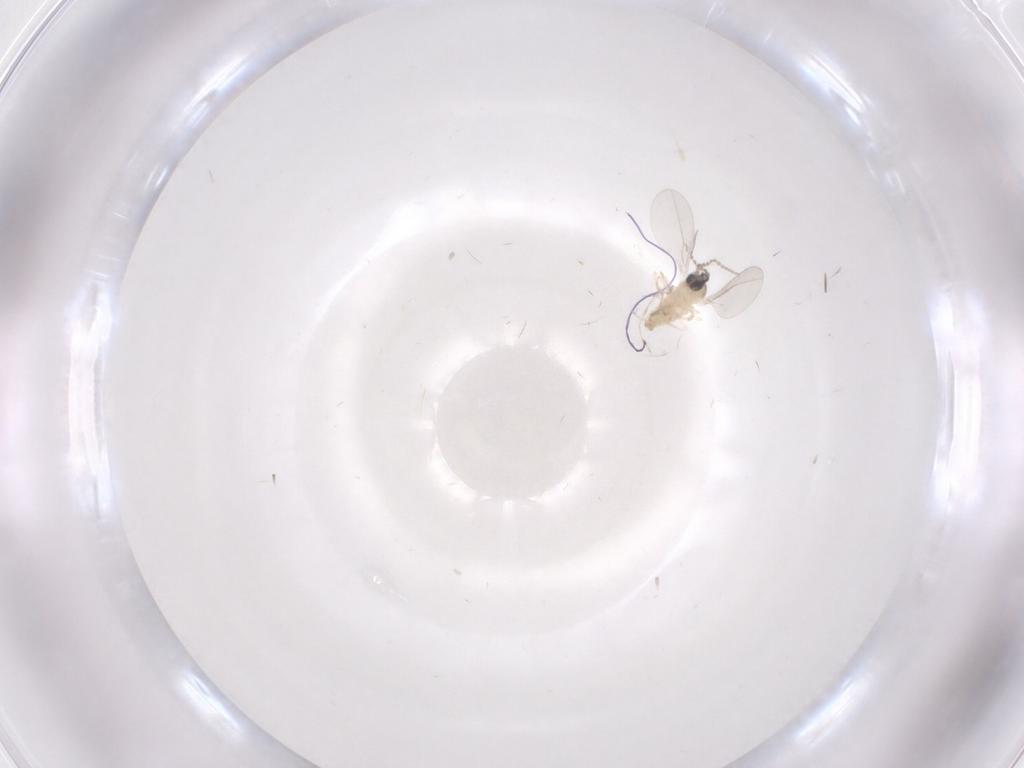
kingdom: Animalia
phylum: Arthropoda
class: Insecta
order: Diptera
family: Cecidomyiidae
